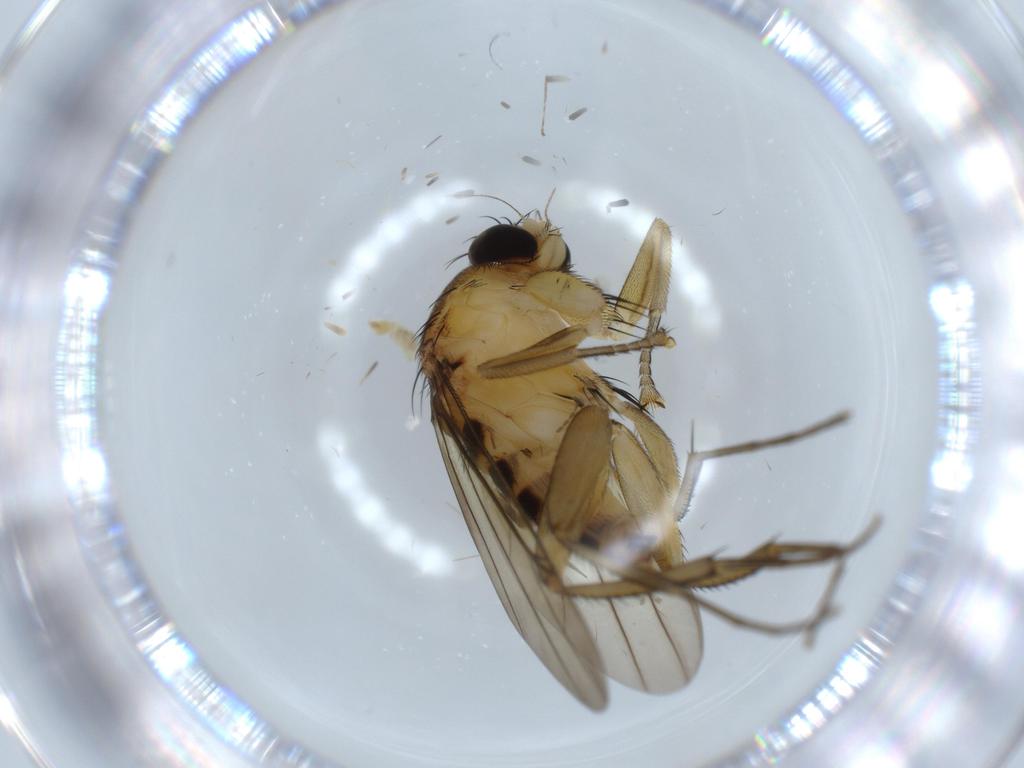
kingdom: Animalia
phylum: Arthropoda
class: Insecta
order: Diptera
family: Phoridae
